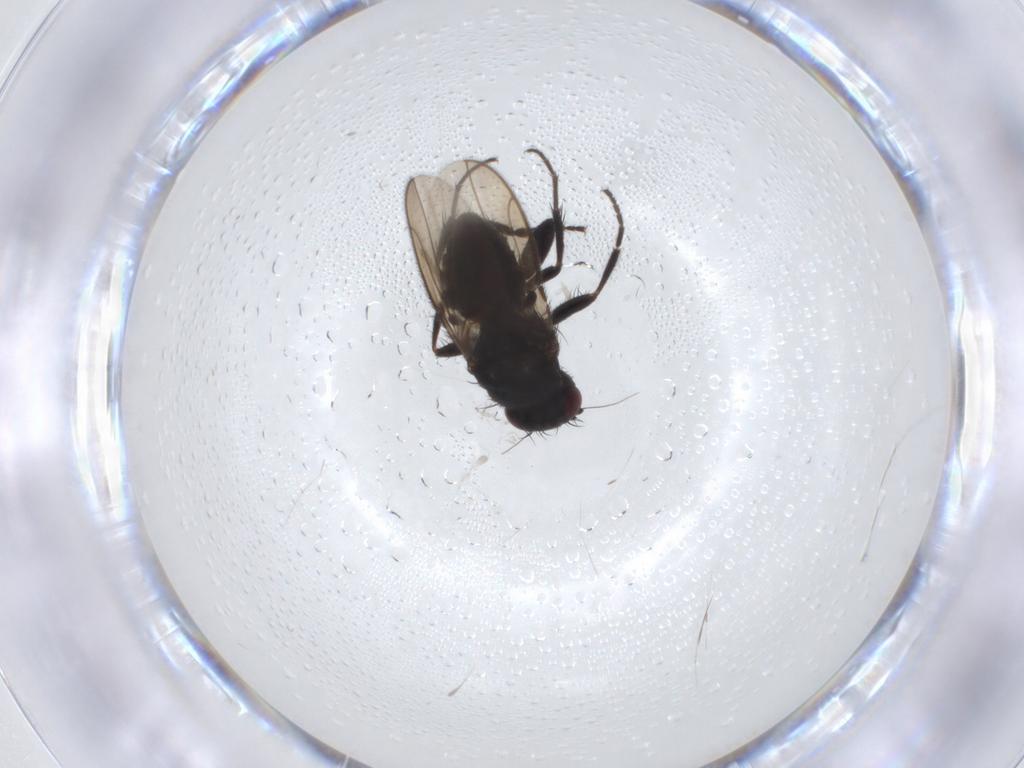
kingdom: Animalia
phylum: Arthropoda
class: Insecta
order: Diptera
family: Sphaeroceridae
